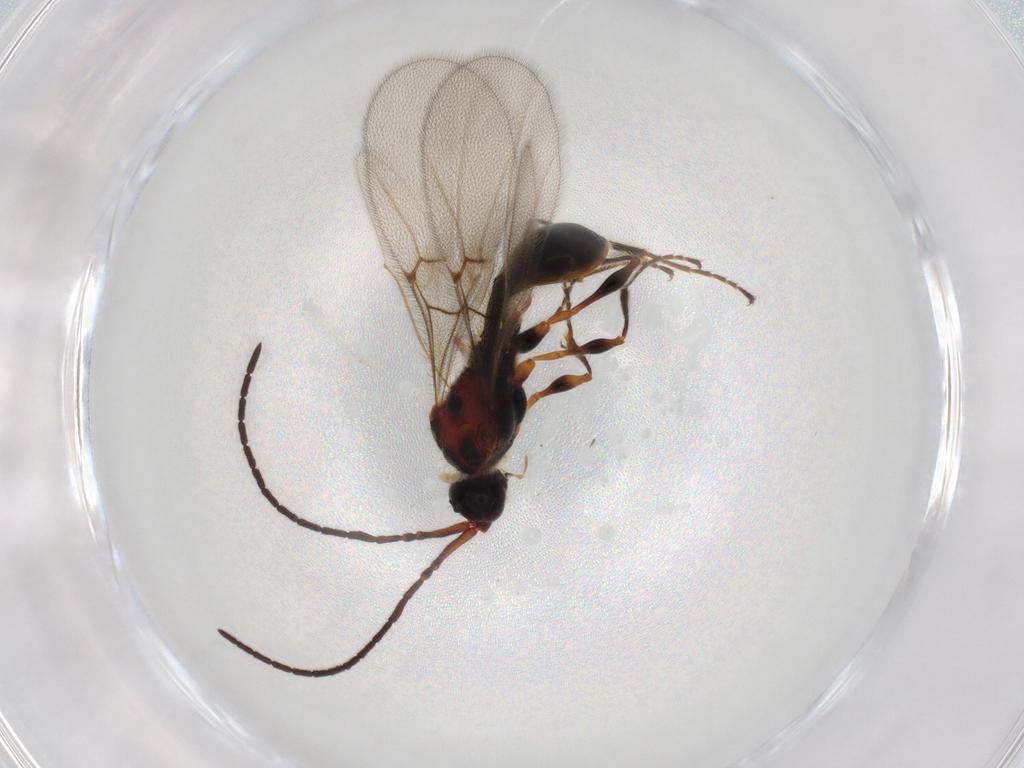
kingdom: Animalia
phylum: Arthropoda
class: Insecta
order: Hymenoptera
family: Diapriidae
